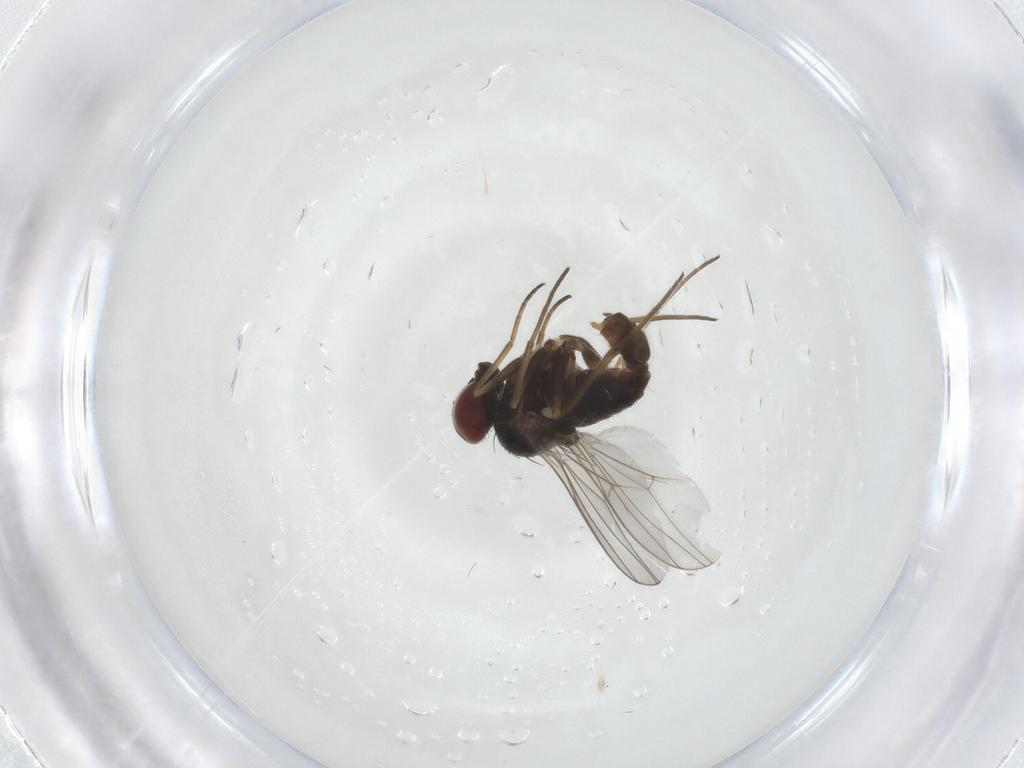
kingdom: Animalia
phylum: Arthropoda
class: Insecta
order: Diptera
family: Dolichopodidae
